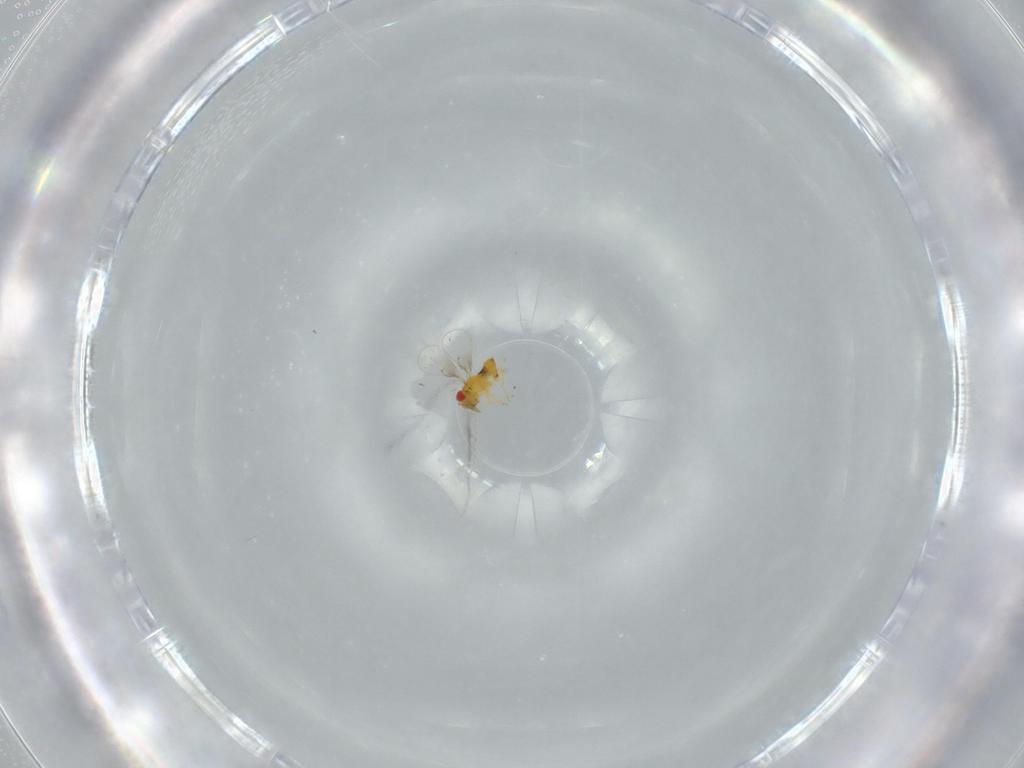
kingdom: Animalia
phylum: Arthropoda
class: Insecta
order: Hymenoptera
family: Trichogrammatidae
